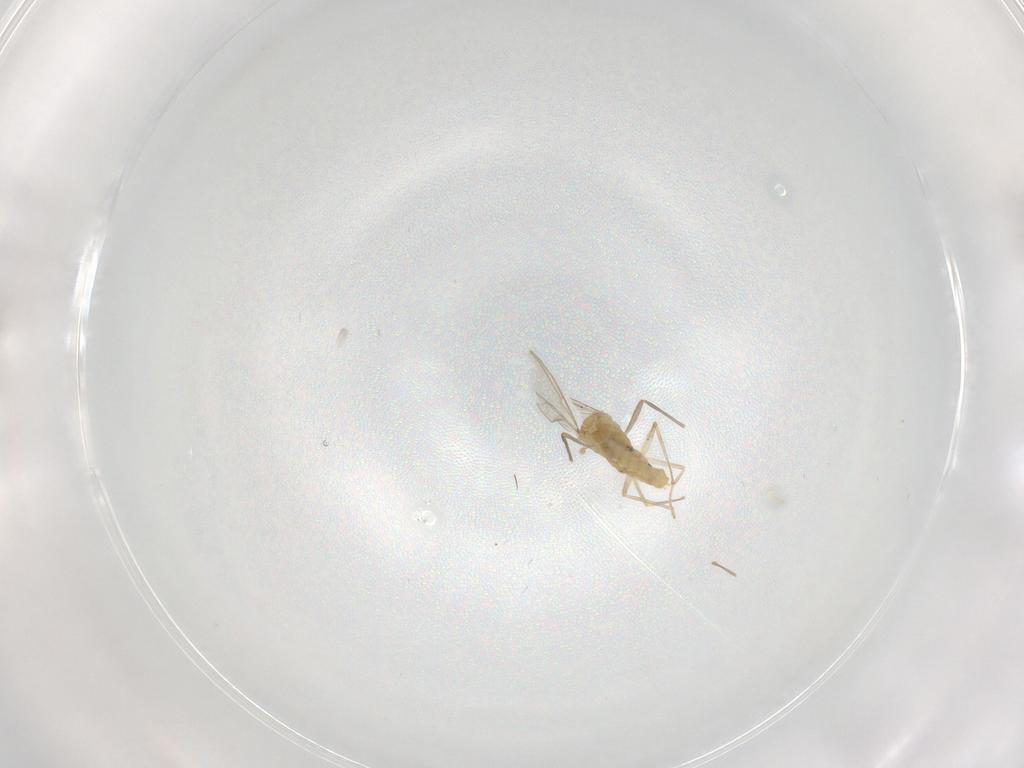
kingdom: Animalia
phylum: Arthropoda
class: Insecta
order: Diptera
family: Chironomidae
